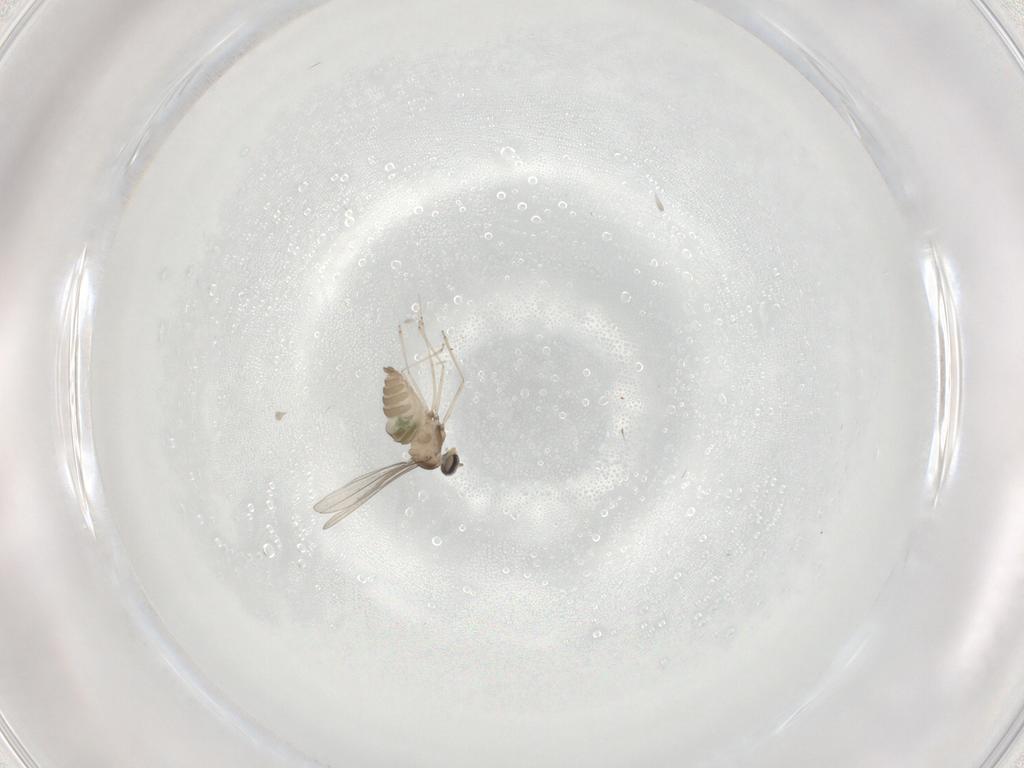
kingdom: Animalia
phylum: Arthropoda
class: Insecta
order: Diptera
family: Cecidomyiidae
